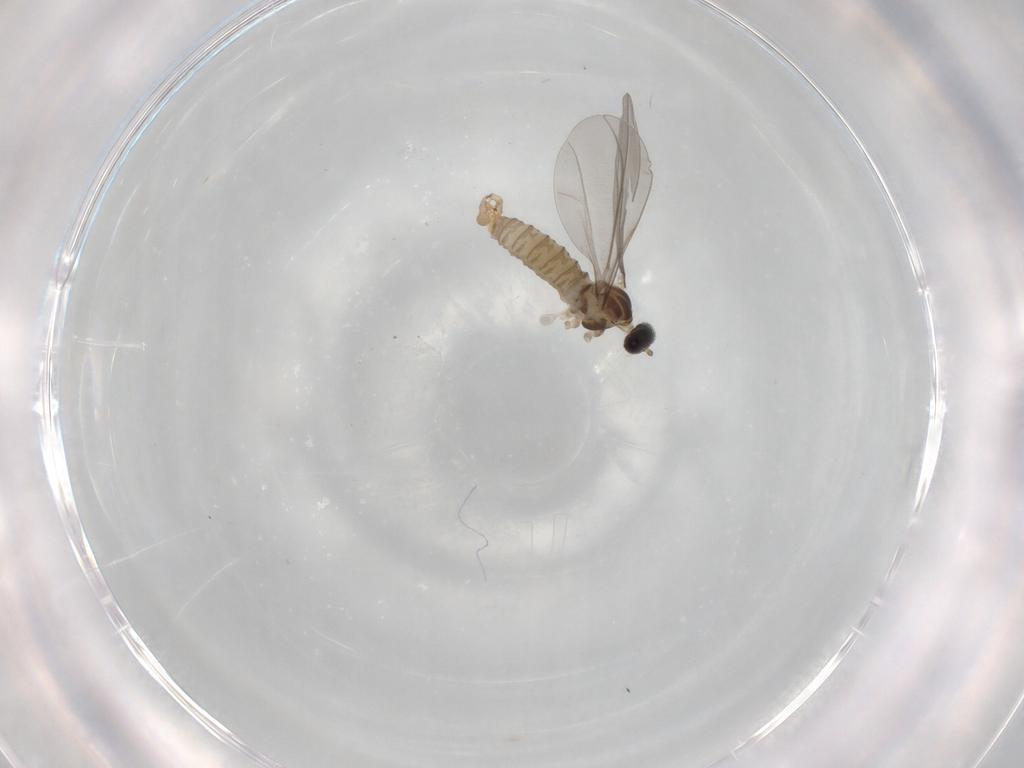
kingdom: Animalia
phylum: Arthropoda
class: Insecta
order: Diptera
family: Cecidomyiidae
